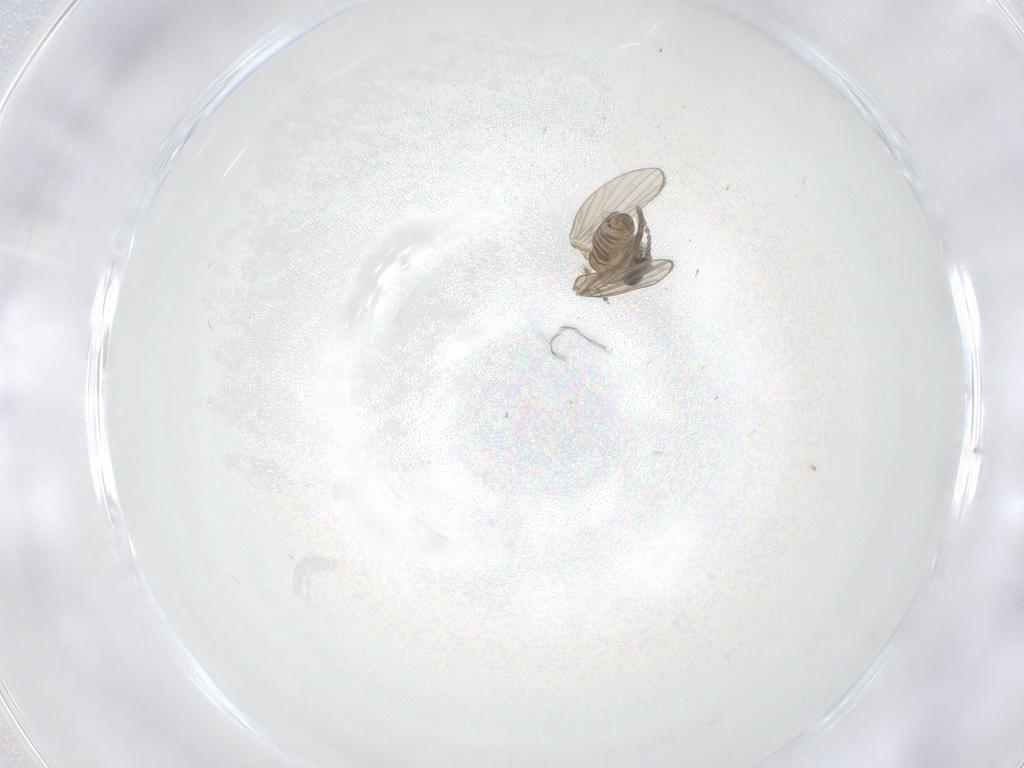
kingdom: Animalia
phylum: Arthropoda
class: Insecta
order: Diptera
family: Psychodidae
